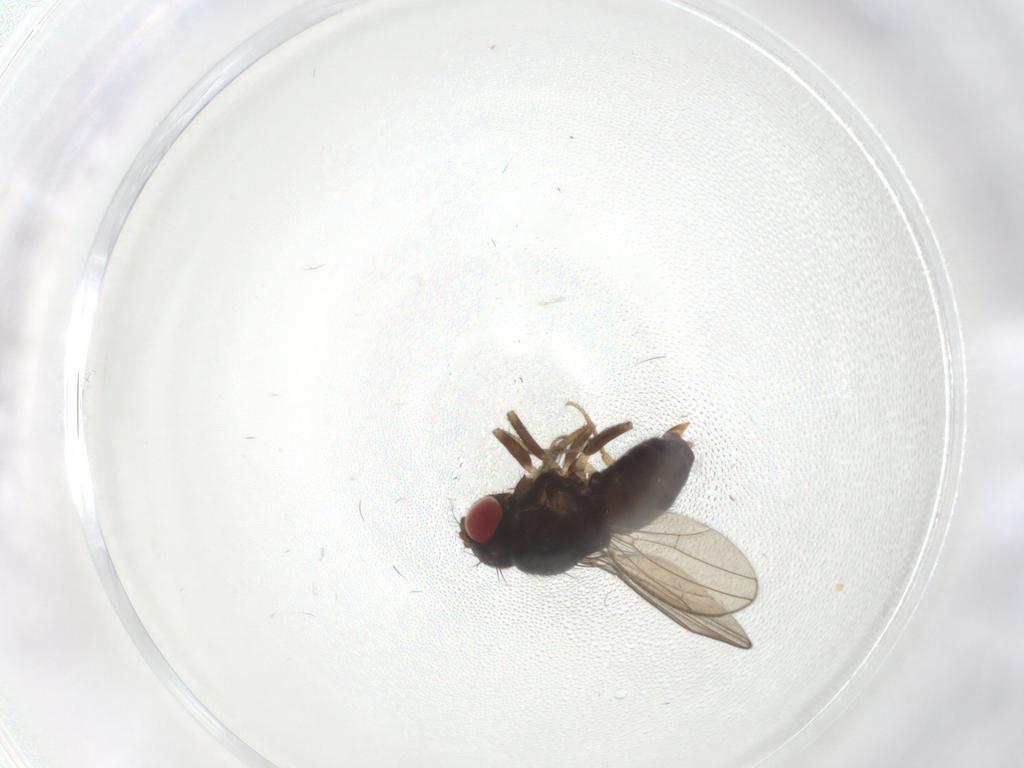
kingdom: Animalia
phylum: Arthropoda
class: Insecta
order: Diptera
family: Drosophilidae
